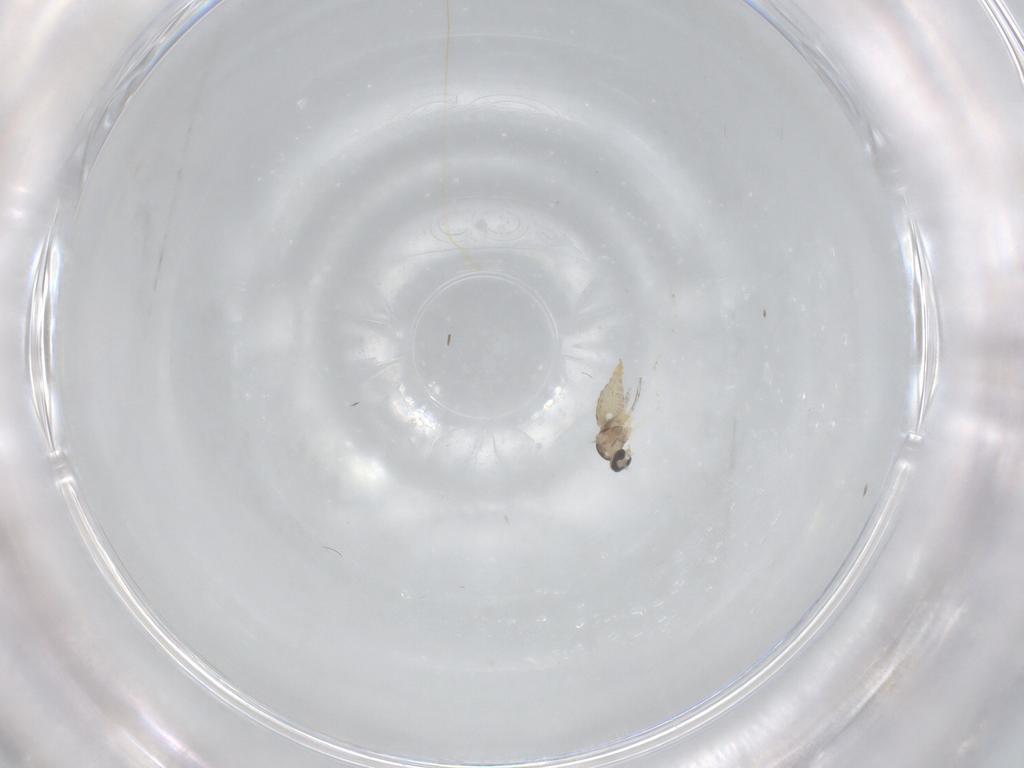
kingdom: Animalia
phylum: Arthropoda
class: Insecta
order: Diptera
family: Cecidomyiidae
